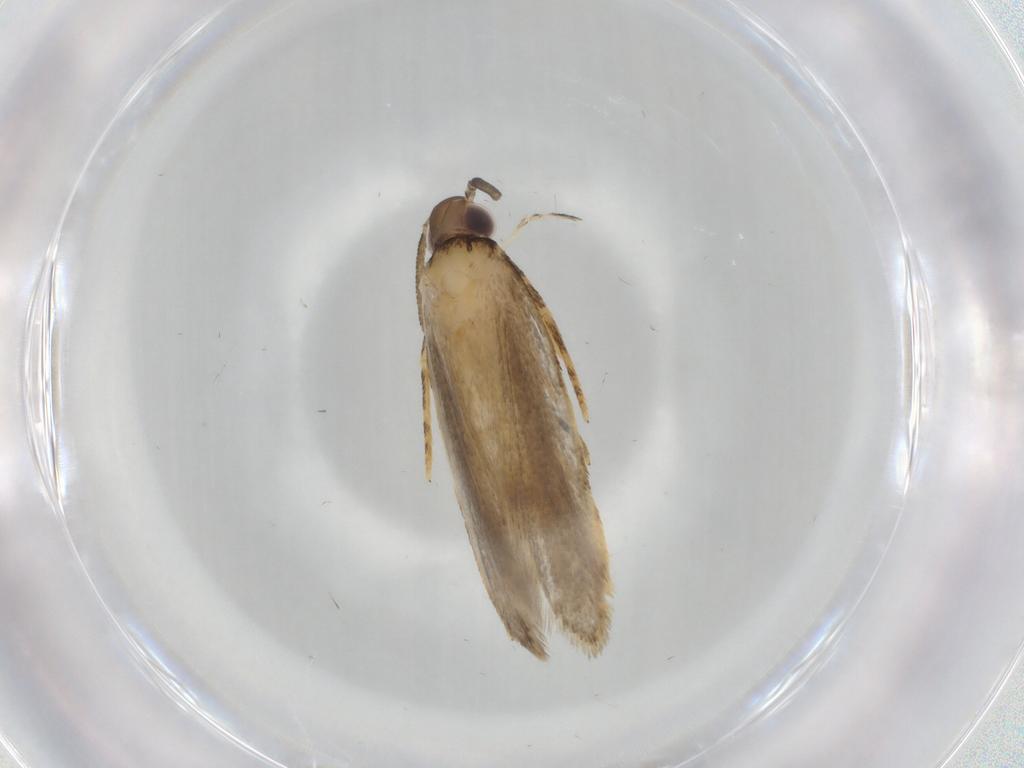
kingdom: Animalia
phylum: Arthropoda
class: Insecta
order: Lepidoptera
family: Autostichidae
